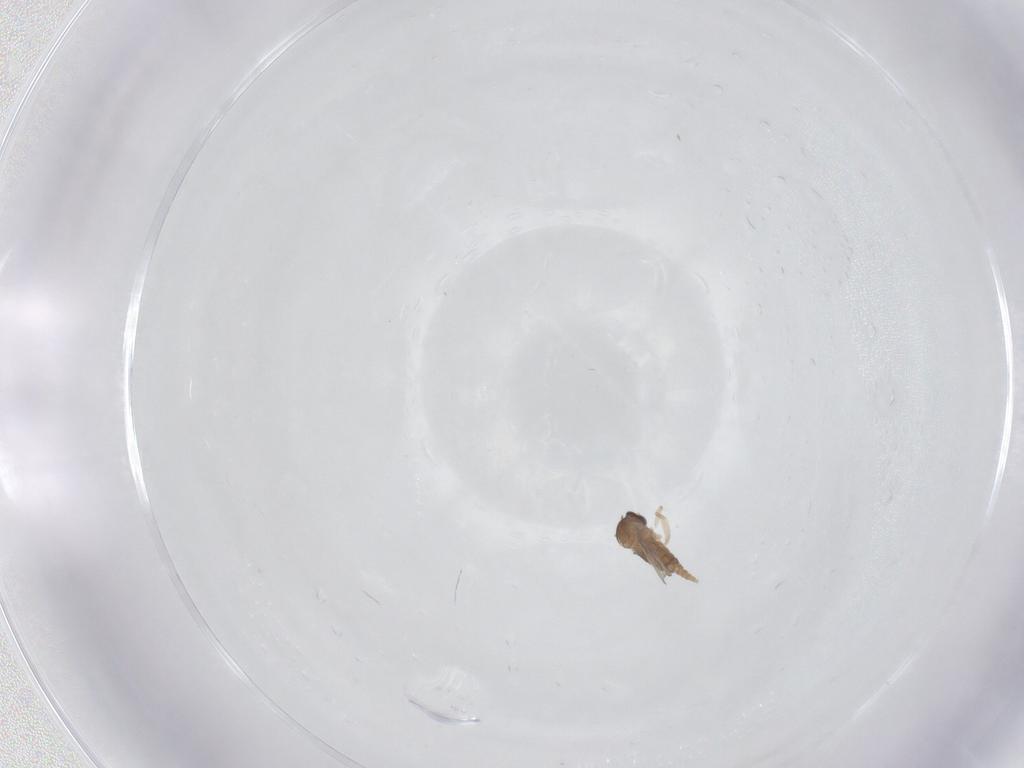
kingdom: Animalia
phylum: Arthropoda
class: Insecta
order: Diptera
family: Cecidomyiidae
